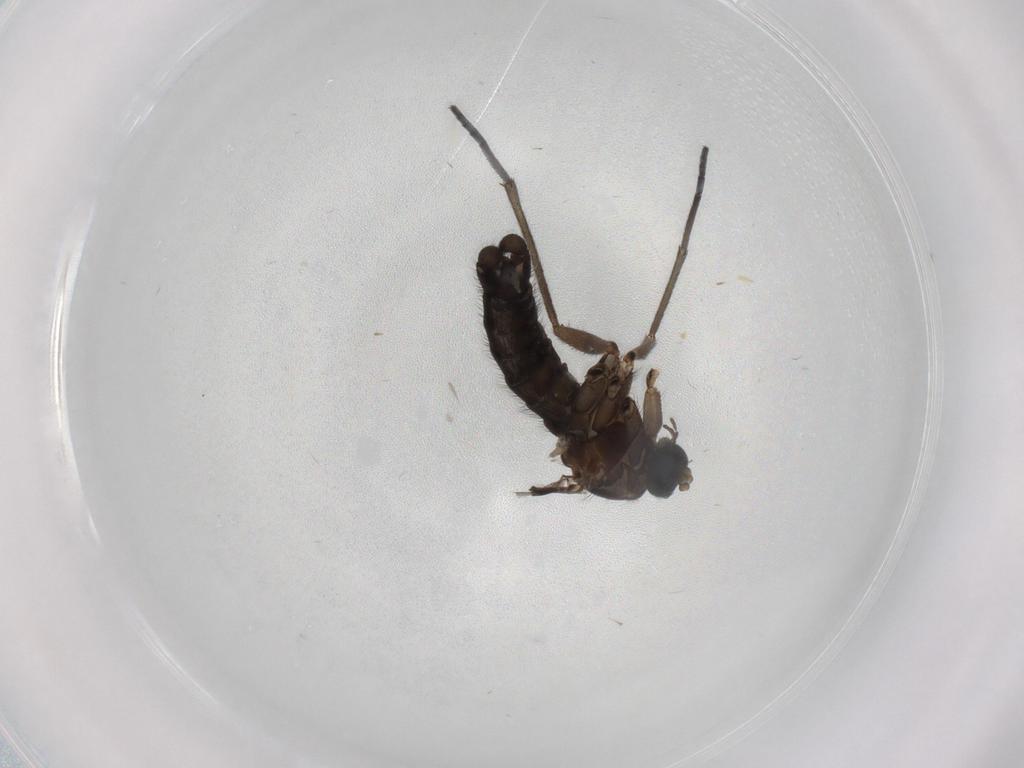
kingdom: Animalia
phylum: Arthropoda
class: Insecta
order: Diptera
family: Sciaridae
